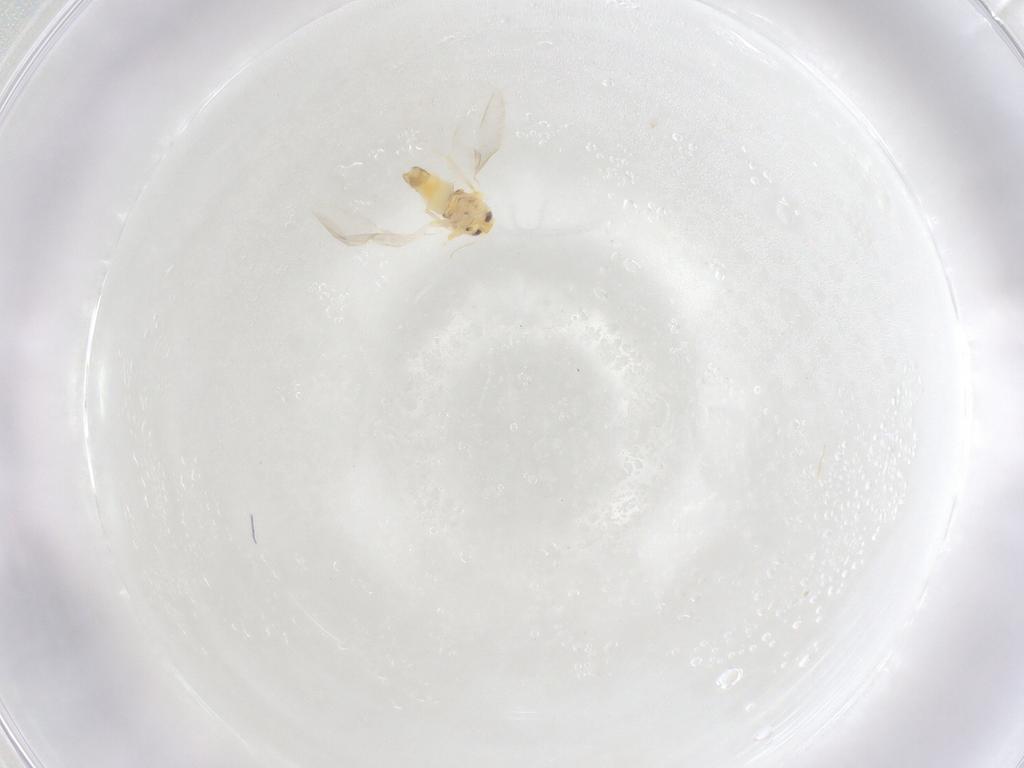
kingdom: Animalia
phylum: Arthropoda
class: Insecta
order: Hemiptera
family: Aleyrodidae
